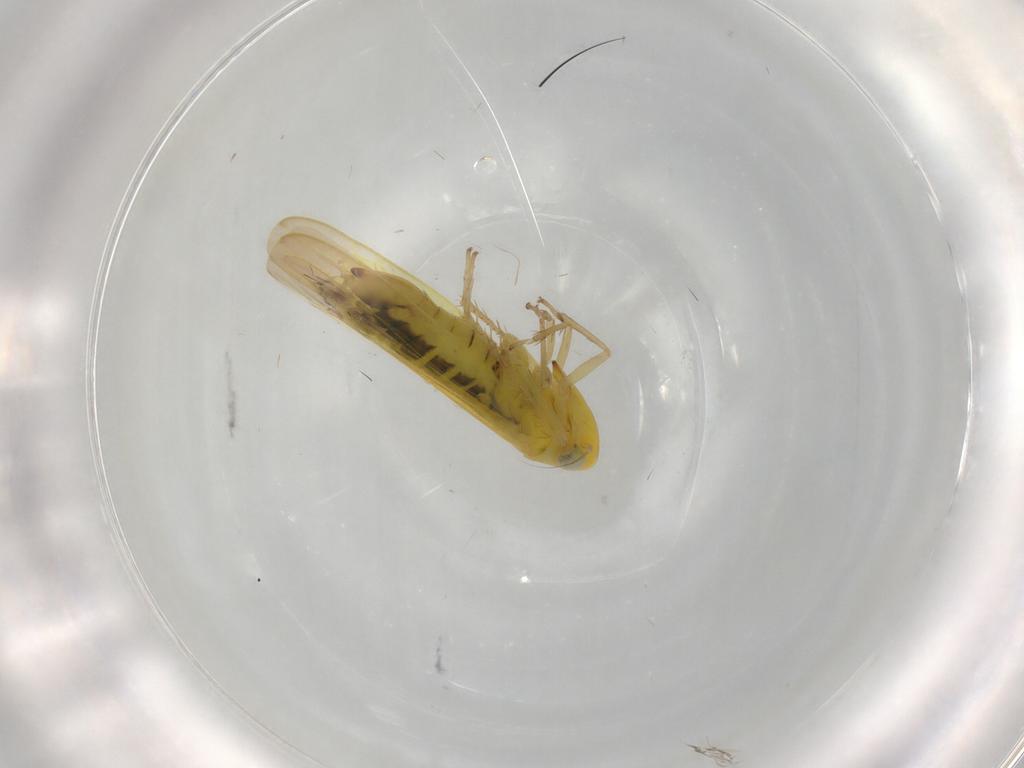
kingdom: Animalia
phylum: Arthropoda
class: Insecta
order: Hemiptera
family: Cicadellidae
